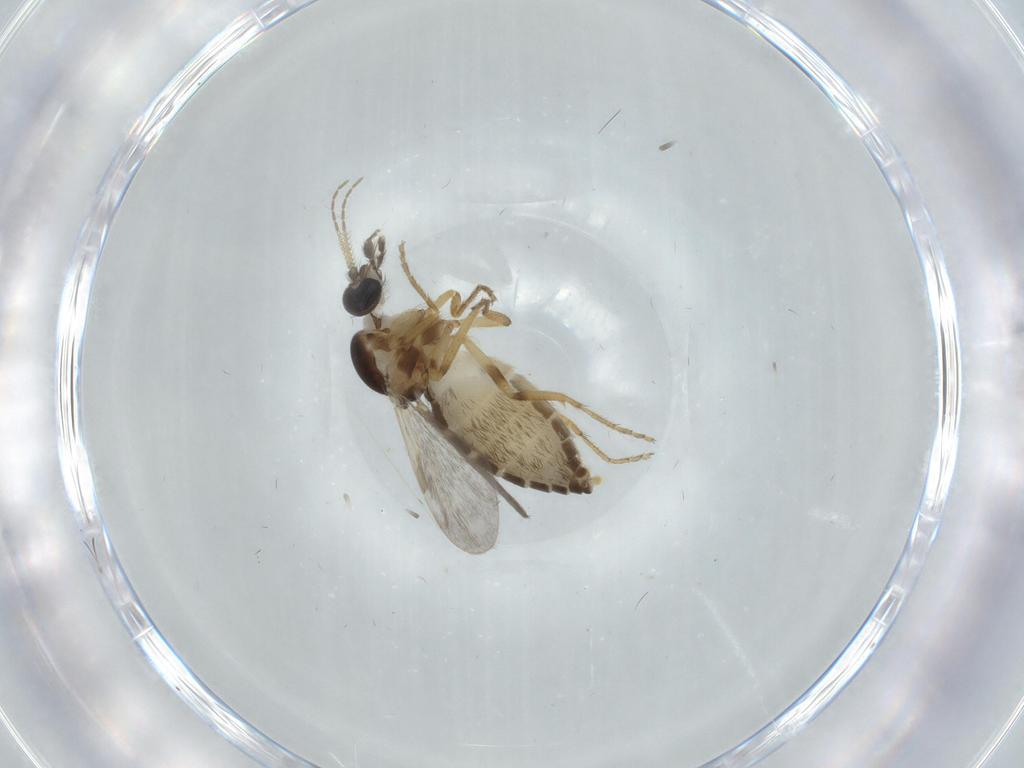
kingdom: Animalia
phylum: Arthropoda
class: Insecta
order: Diptera
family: Ceratopogonidae
